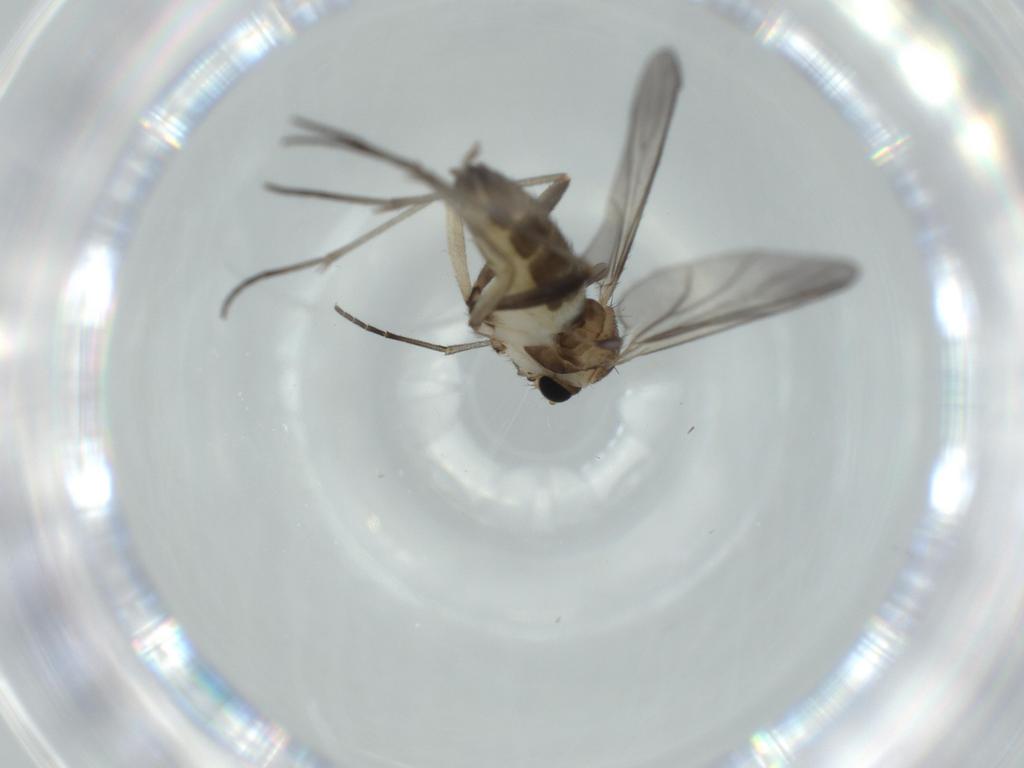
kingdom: Animalia
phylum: Arthropoda
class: Insecta
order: Diptera
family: Sciaridae
